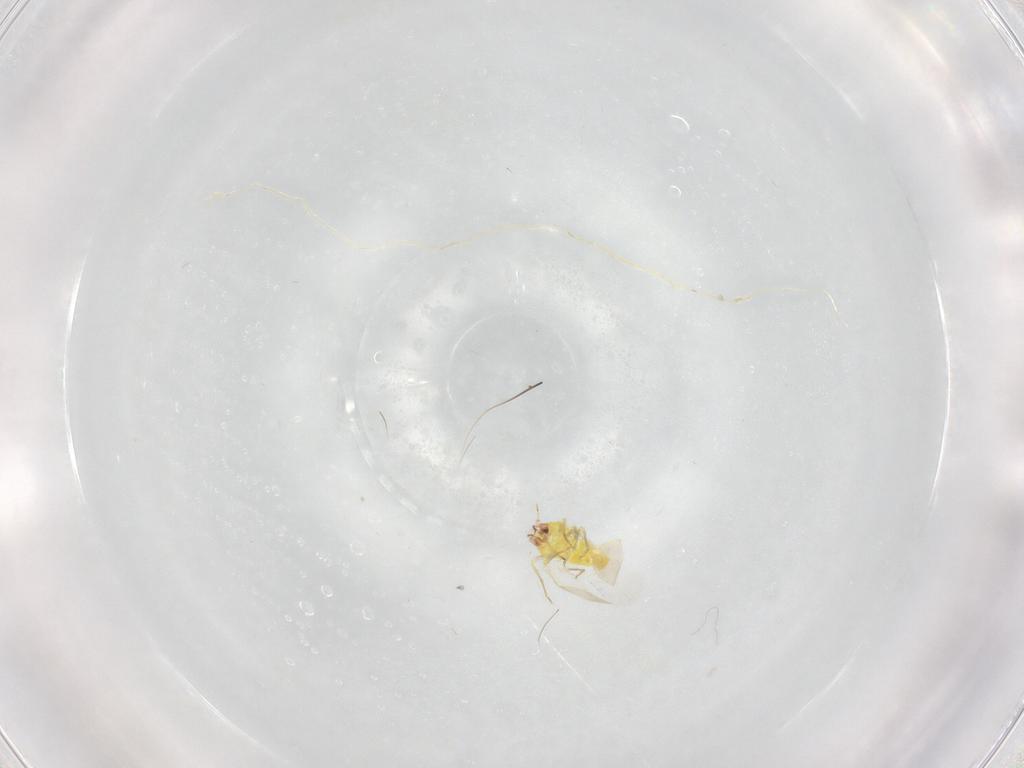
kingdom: Animalia
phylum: Arthropoda
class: Insecta
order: Hemiptera
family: Aleyrodidae
